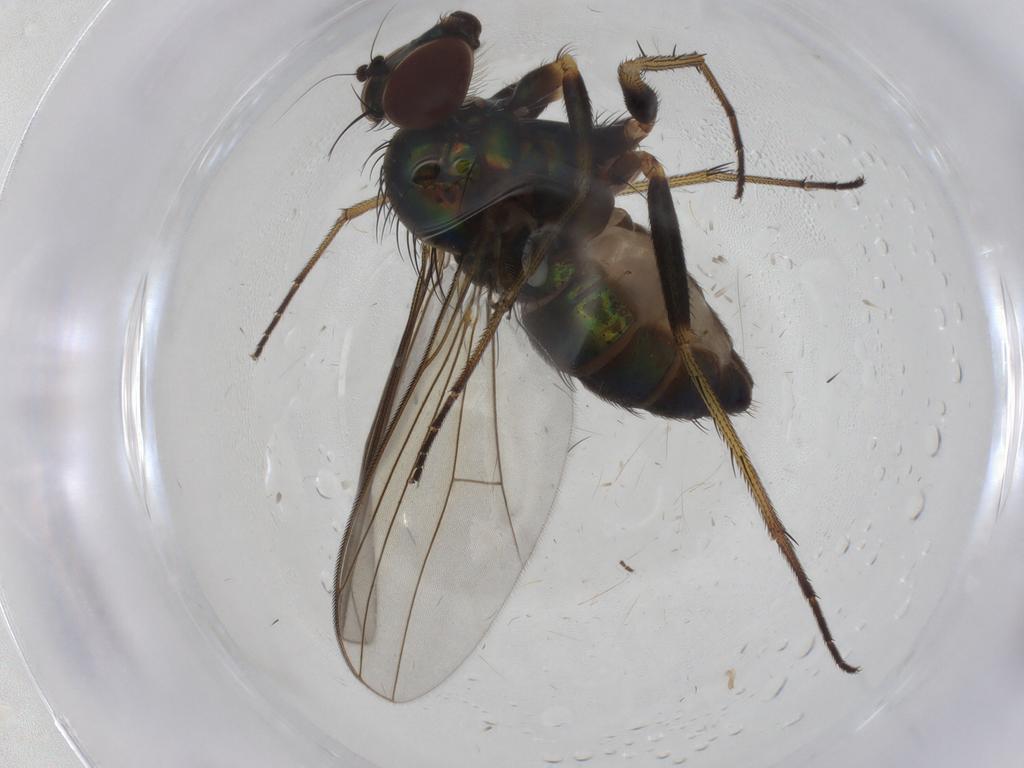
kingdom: Animalia
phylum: Arthropoda
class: Insecta
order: Diptera
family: Dolichopodidae
